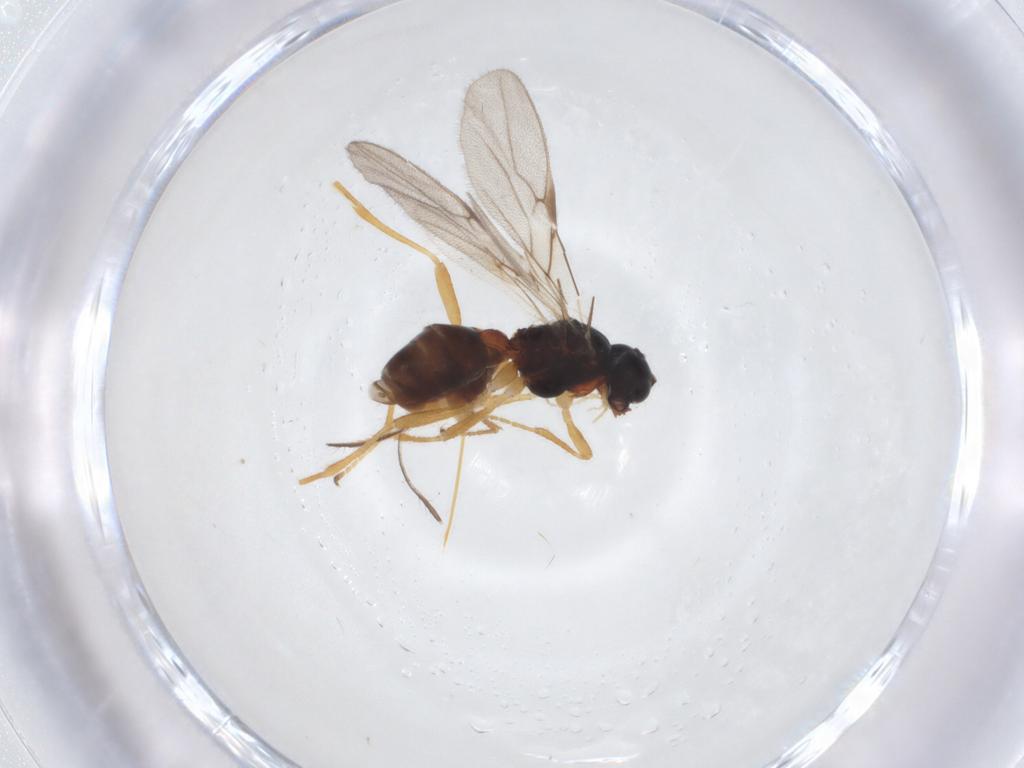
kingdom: Animalia
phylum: Arthropoda
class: Insecta
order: Hymenoptera
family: Braconidae
